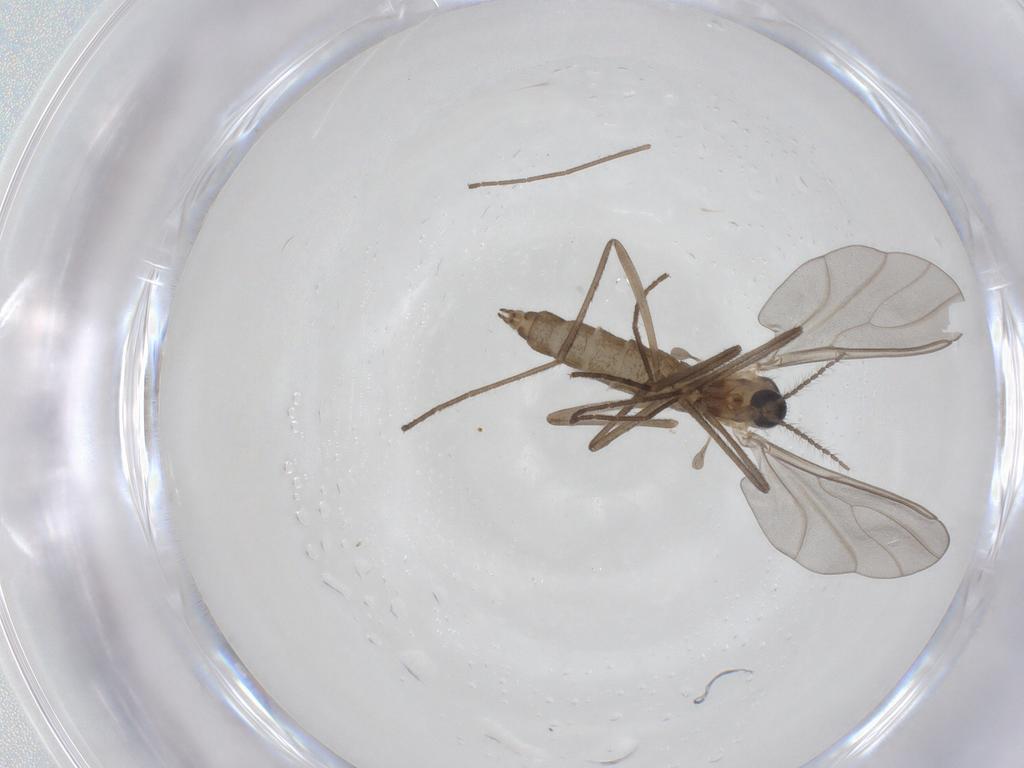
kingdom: Animalia
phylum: Arthropoda
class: Insecta
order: Diptera
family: Cecidomyiidae
